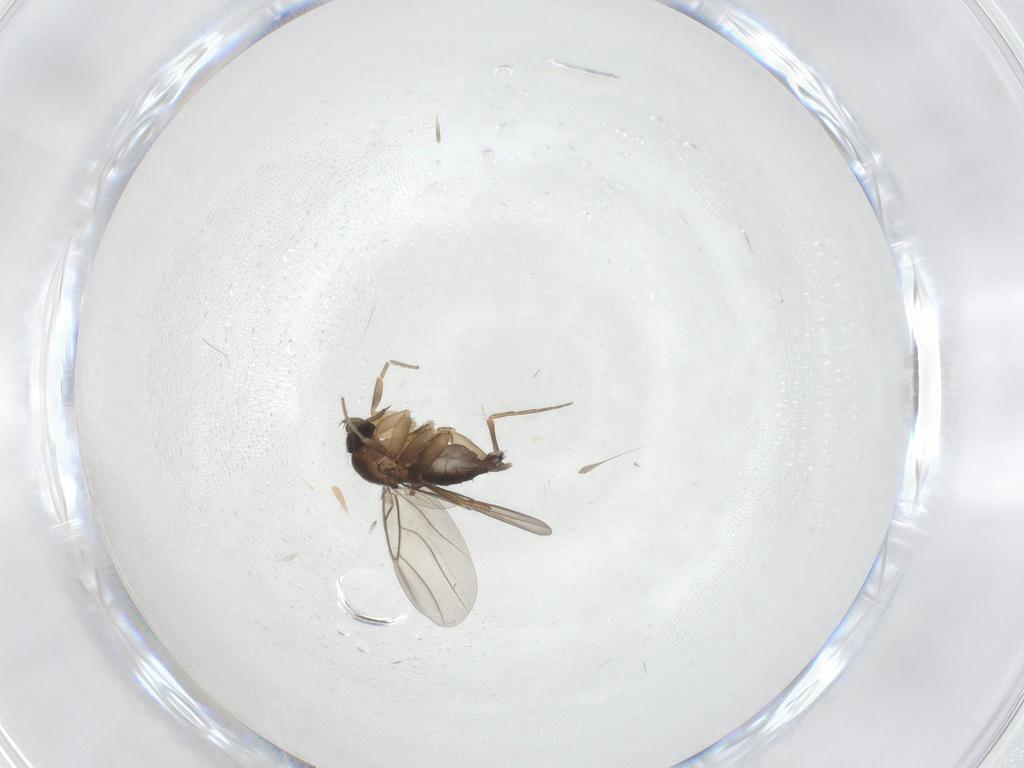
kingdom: Animalia
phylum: Arthropoda
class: Insecta
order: Diptera
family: Phoridae
